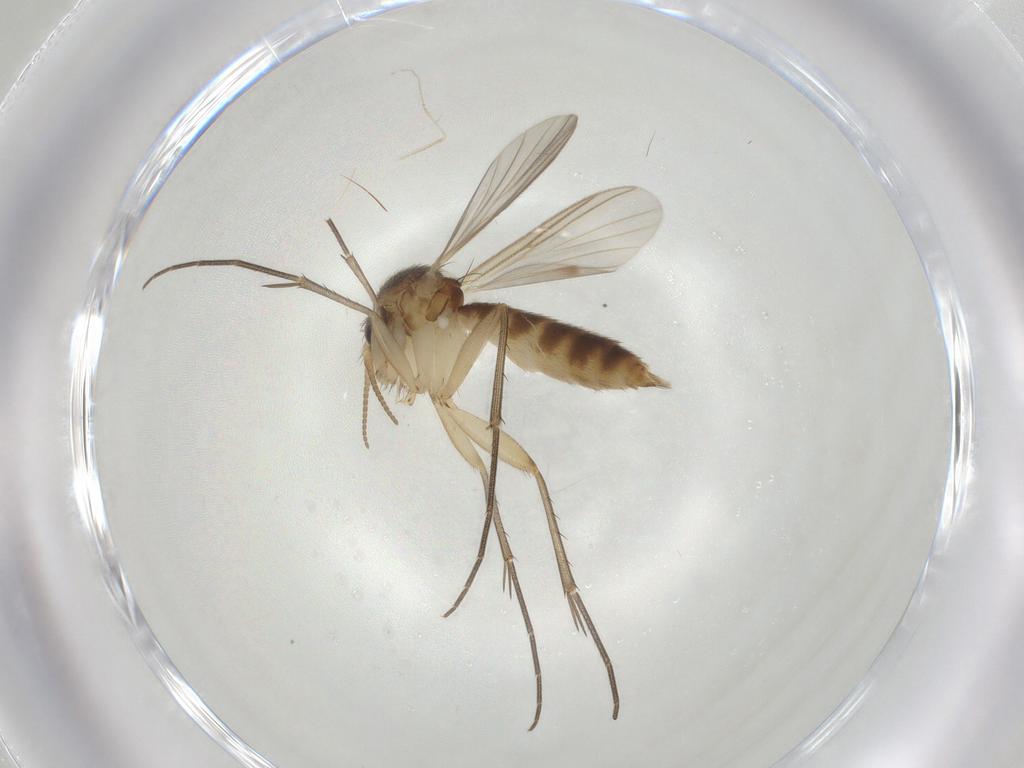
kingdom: Animalia
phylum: Arthropoda
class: Insecta
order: Diptera
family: Mycetophilidae
